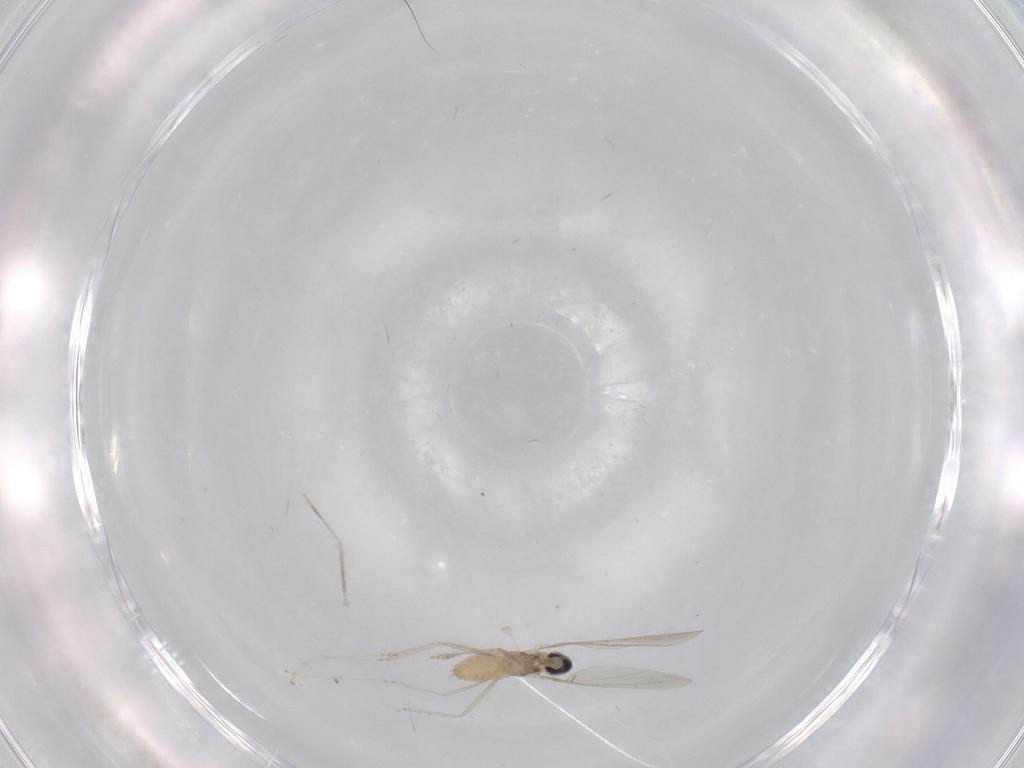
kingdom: Animalia
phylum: Arthropoda
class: Insecta
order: Diptera
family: Cecidomyiidae
